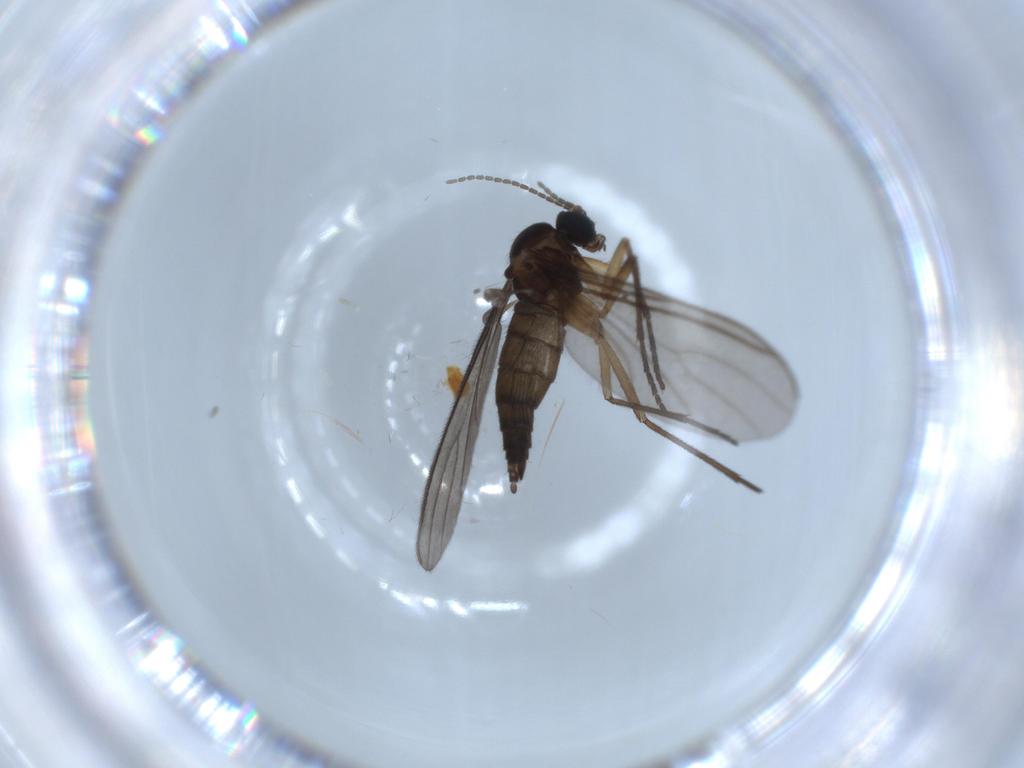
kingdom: Animalia
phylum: Arthropoda
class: Insecta
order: Diptera
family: Sciaridae
